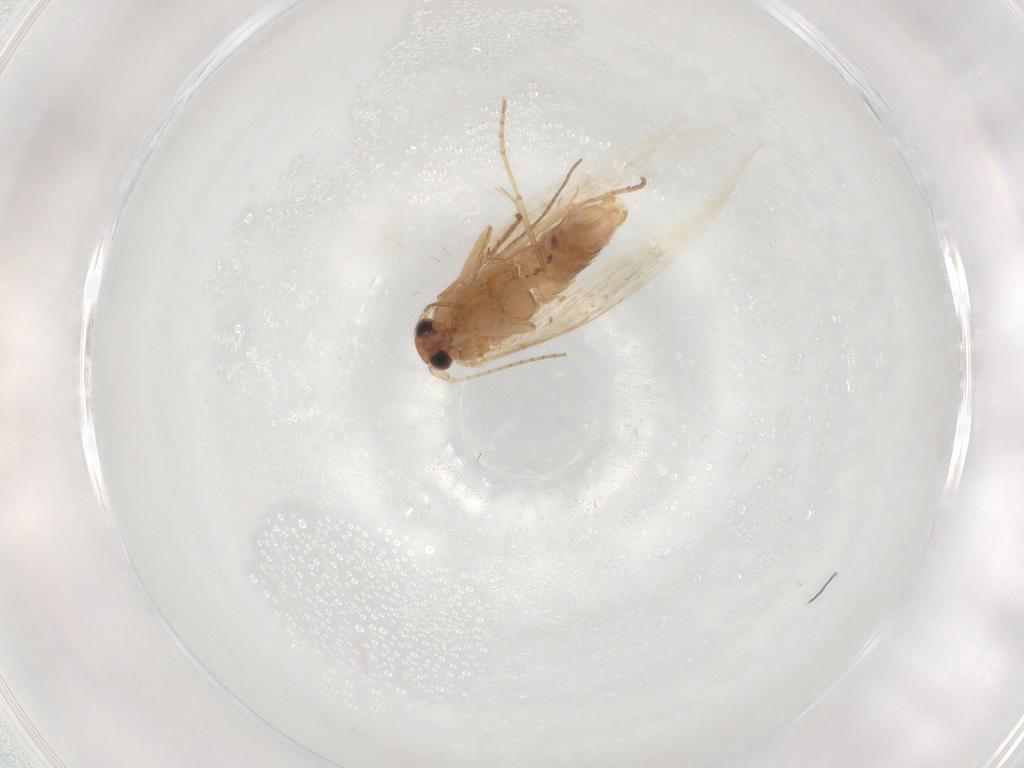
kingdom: Animalia
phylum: Arthropoda
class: Insecta
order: Lepidoptera
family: Bucculatricidae
